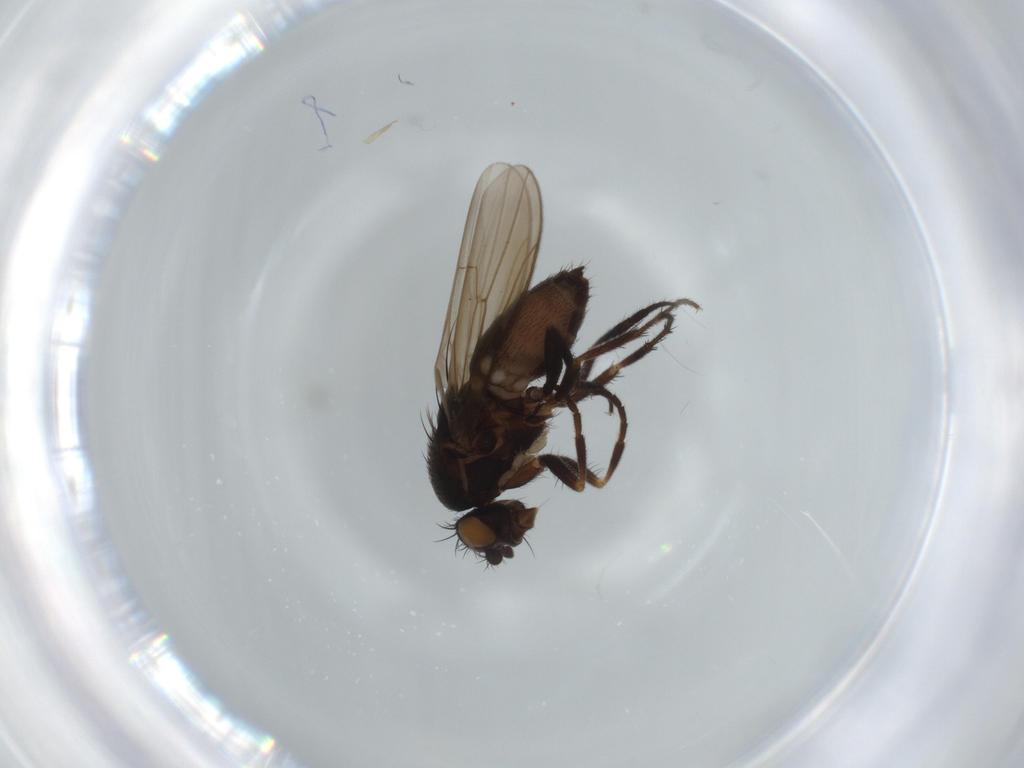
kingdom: Animalia
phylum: Arthropoda
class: Insecta
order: Diptera
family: Sphaeroceridae
